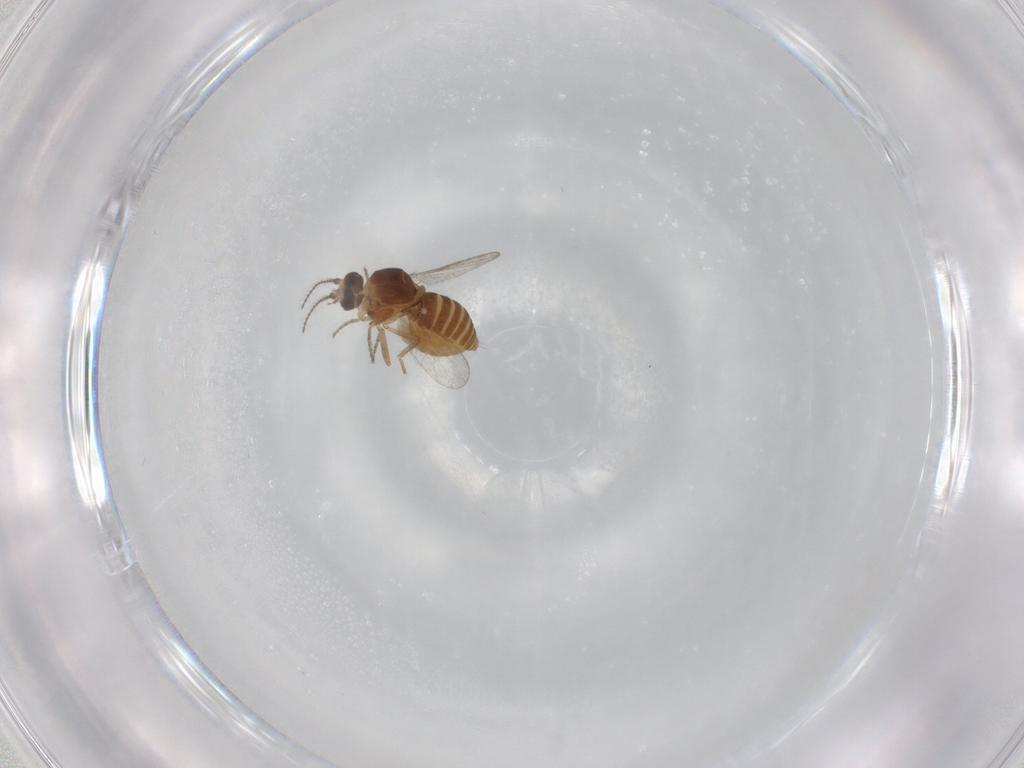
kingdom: Animalia
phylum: Arthropoda
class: Insecta
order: Diptera
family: Ceratopogonidae
